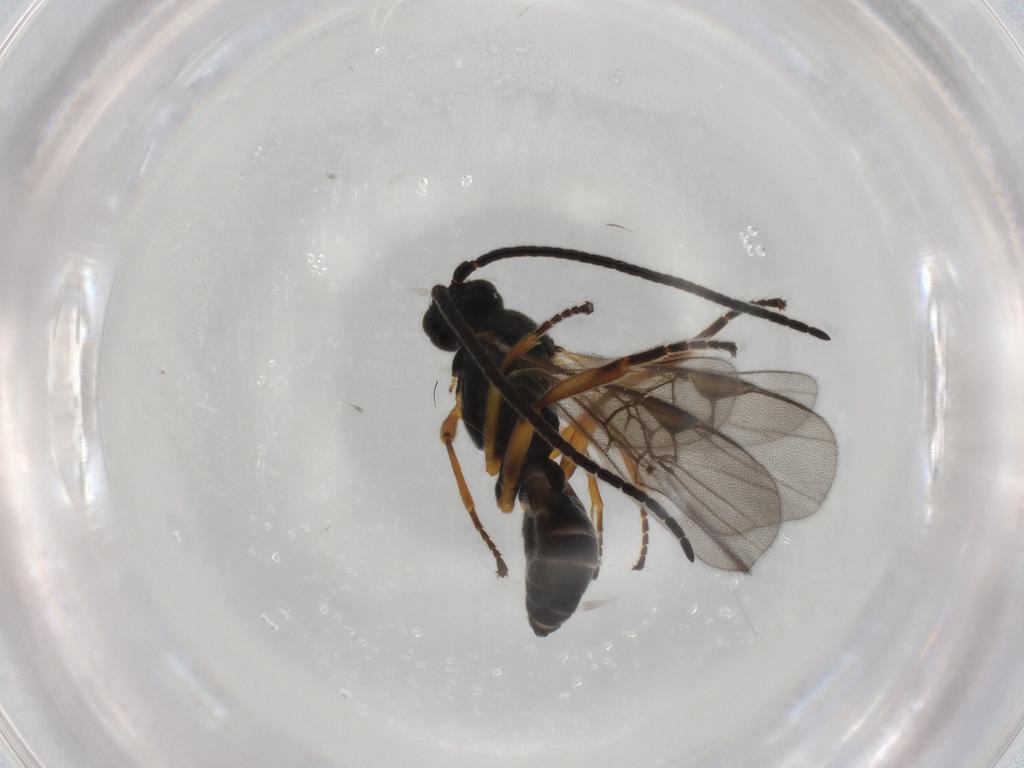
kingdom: Animalia
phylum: Arthropoda
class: Insecta
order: Hymenoptera
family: Braconidae
